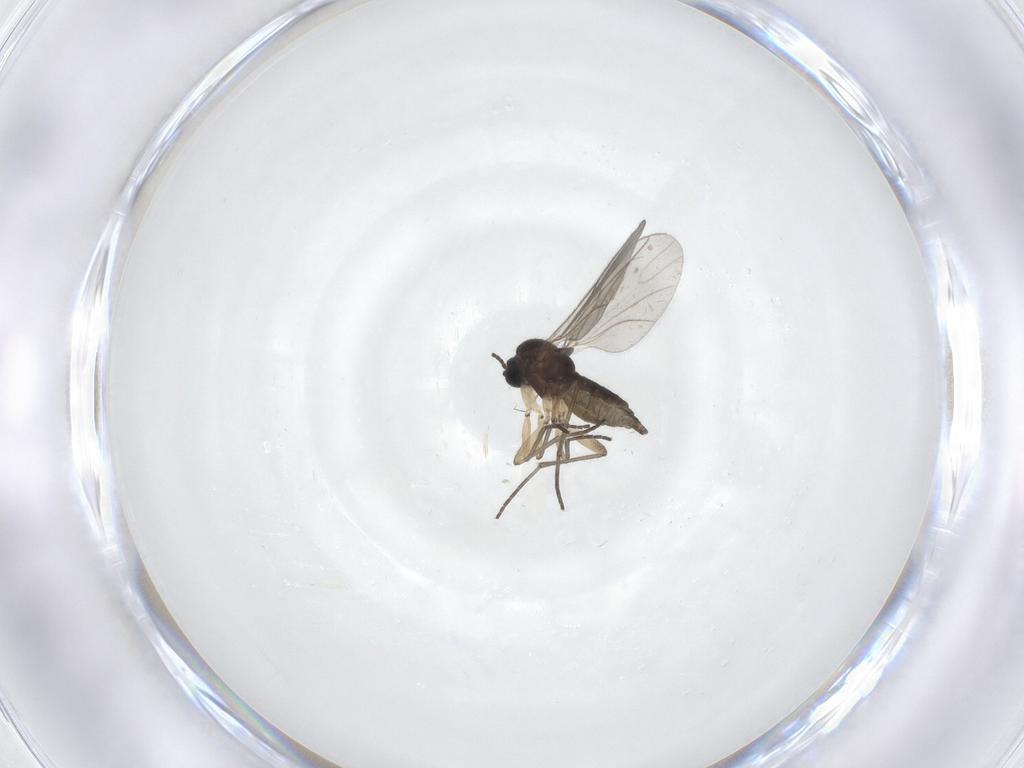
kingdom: Animalia
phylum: Arthropoda
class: Insecta
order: Diptera
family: Sciaridae
